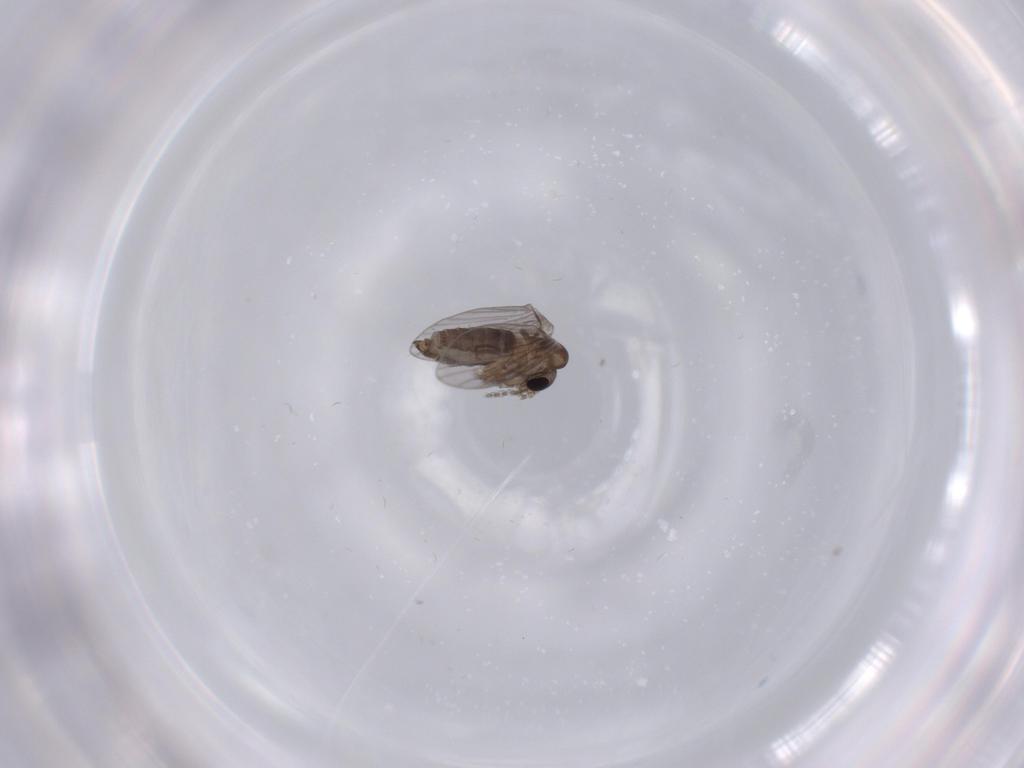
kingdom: Animalia
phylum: Arthropoda
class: Insecta
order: Diptera
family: Psychodidae
